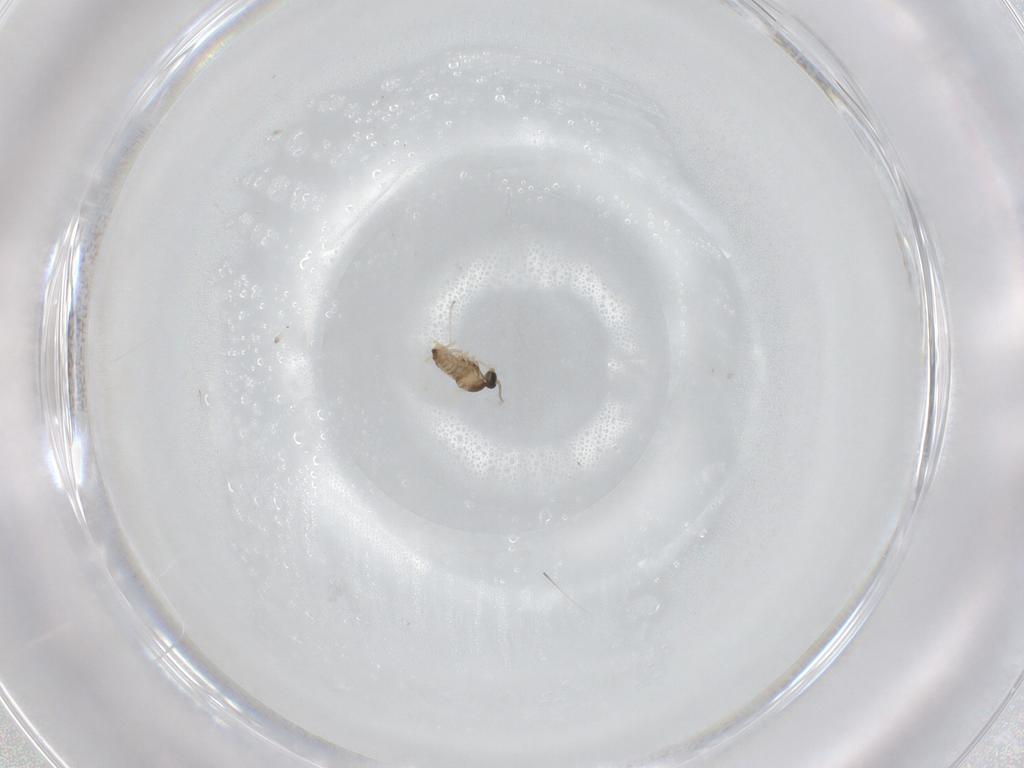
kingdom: Animalia
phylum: Arthropoda
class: Insecta
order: Diptera
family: Cecidomyiidae
